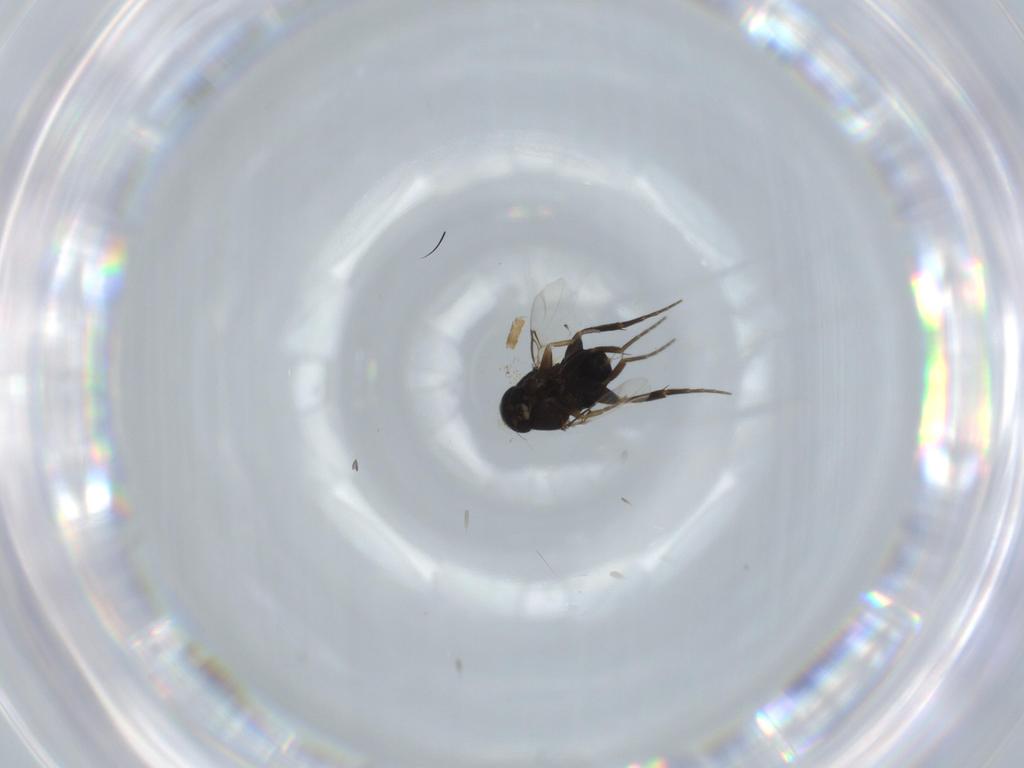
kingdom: Animalia
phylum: Arthropoda
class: Insecta
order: Diptera
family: Phoridae
